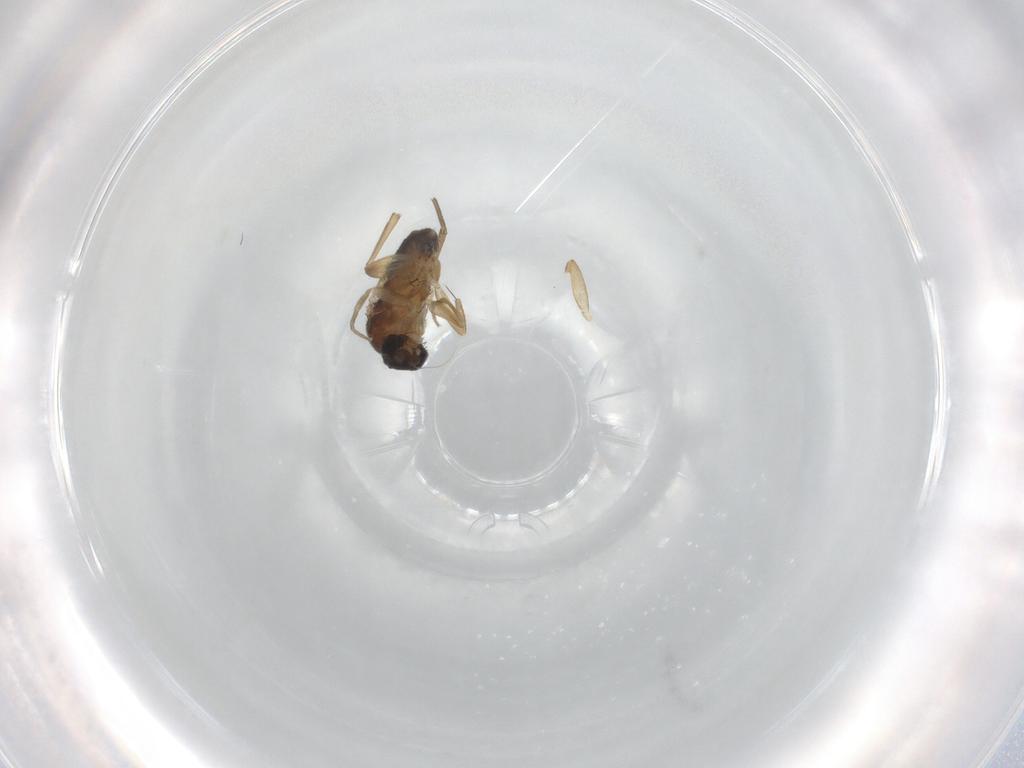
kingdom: Animalia
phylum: Arthropoda
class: Insecta
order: Diptera
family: Phoridae
